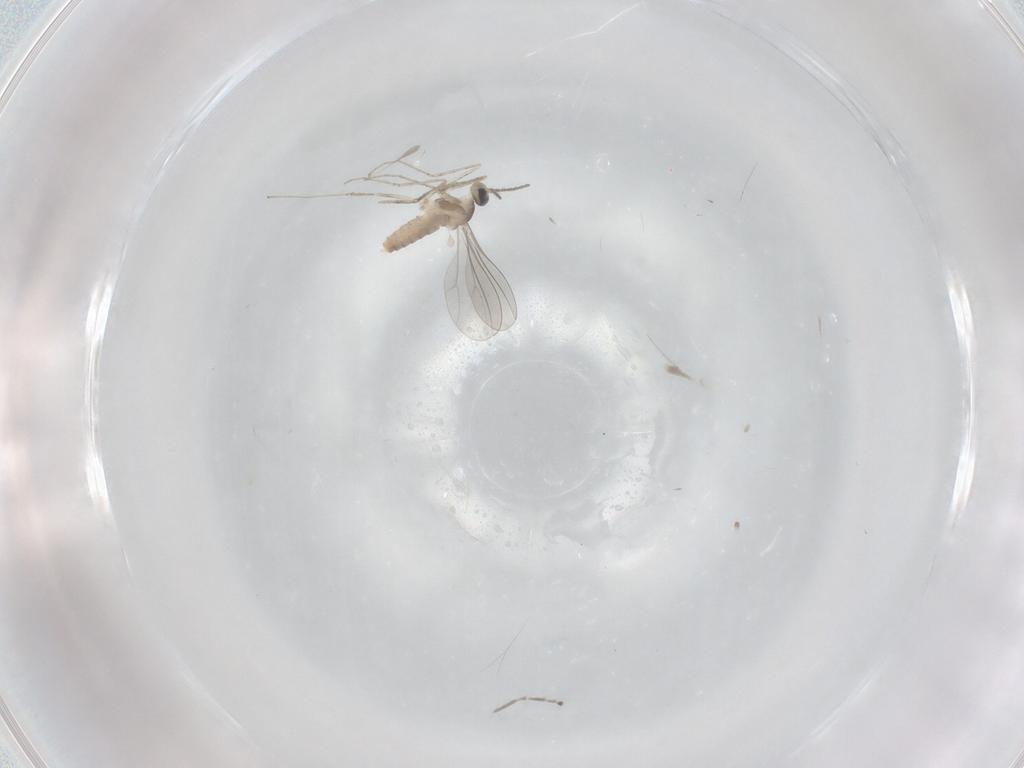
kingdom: Animalia
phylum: Arthropoda
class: Insecta
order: Diptera
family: Cecidomyiidae
